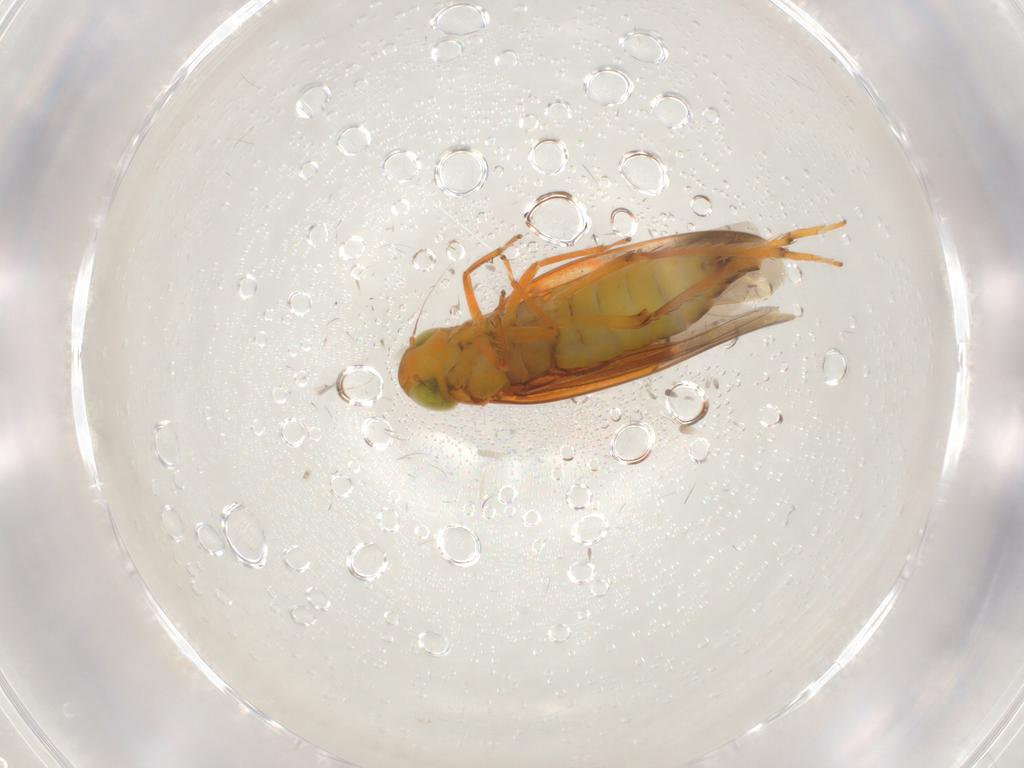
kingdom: Animalia
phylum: Arthropoda
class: Insecta
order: Hemiptera
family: Cicadellidae
